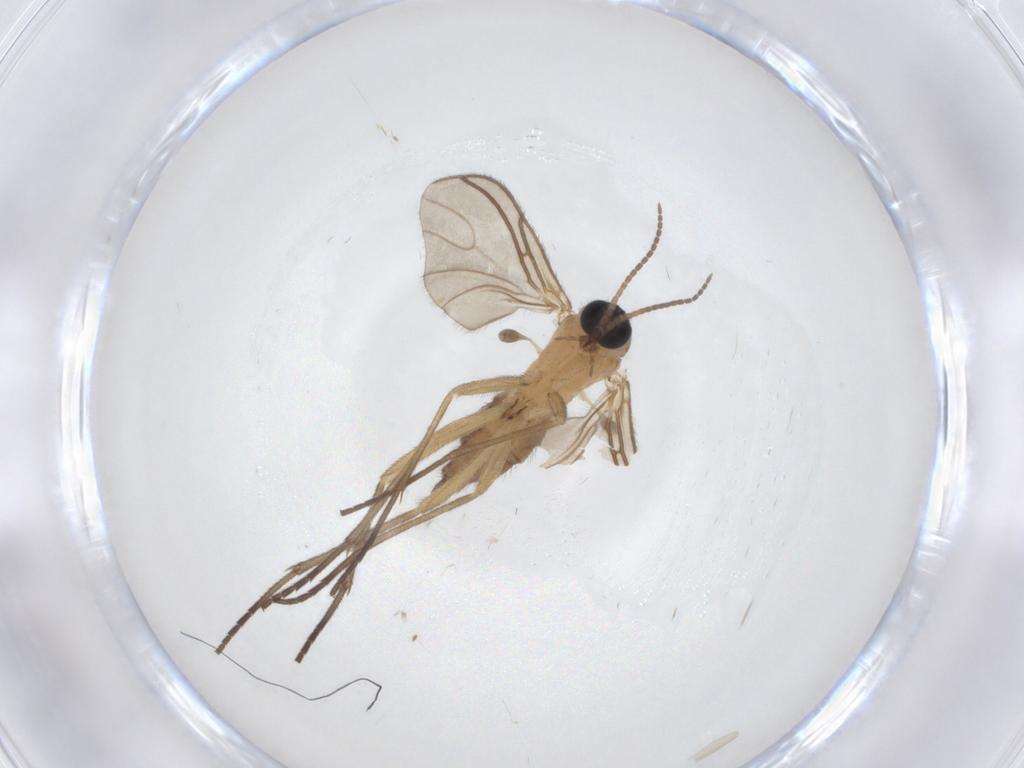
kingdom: Animalia
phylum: Arthropoda
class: Insecta
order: Diptera
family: Sciaridae
